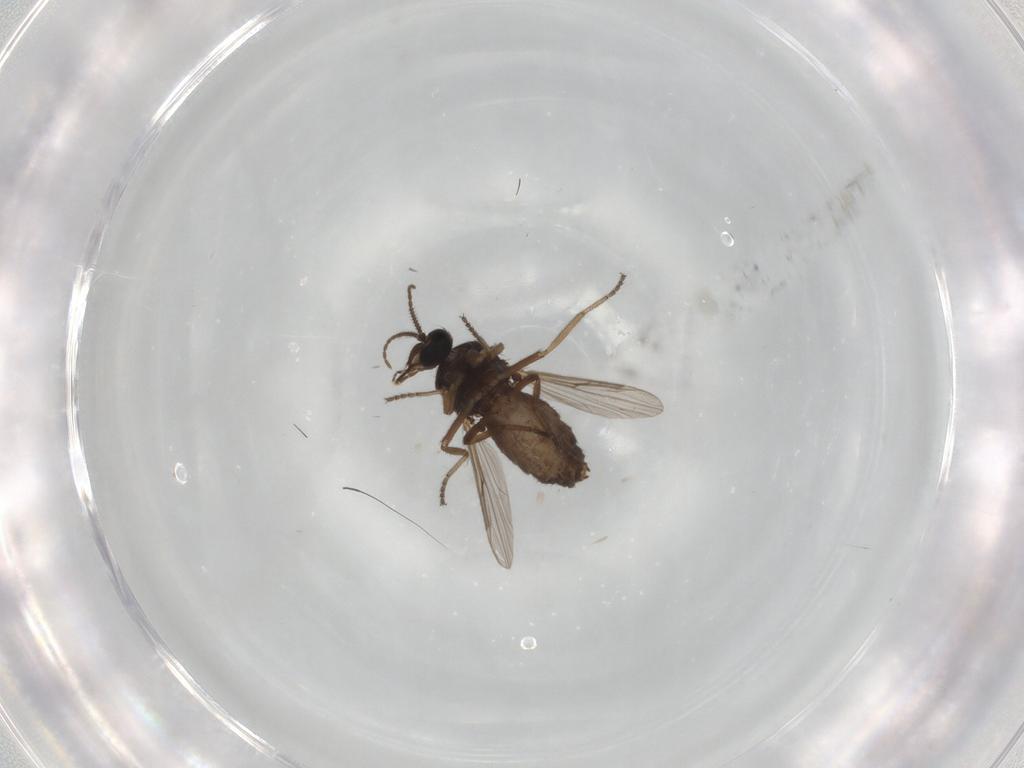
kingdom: Animalia
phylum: Arthropoda
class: Insecta
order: Diptera
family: Ceratopogonidae
